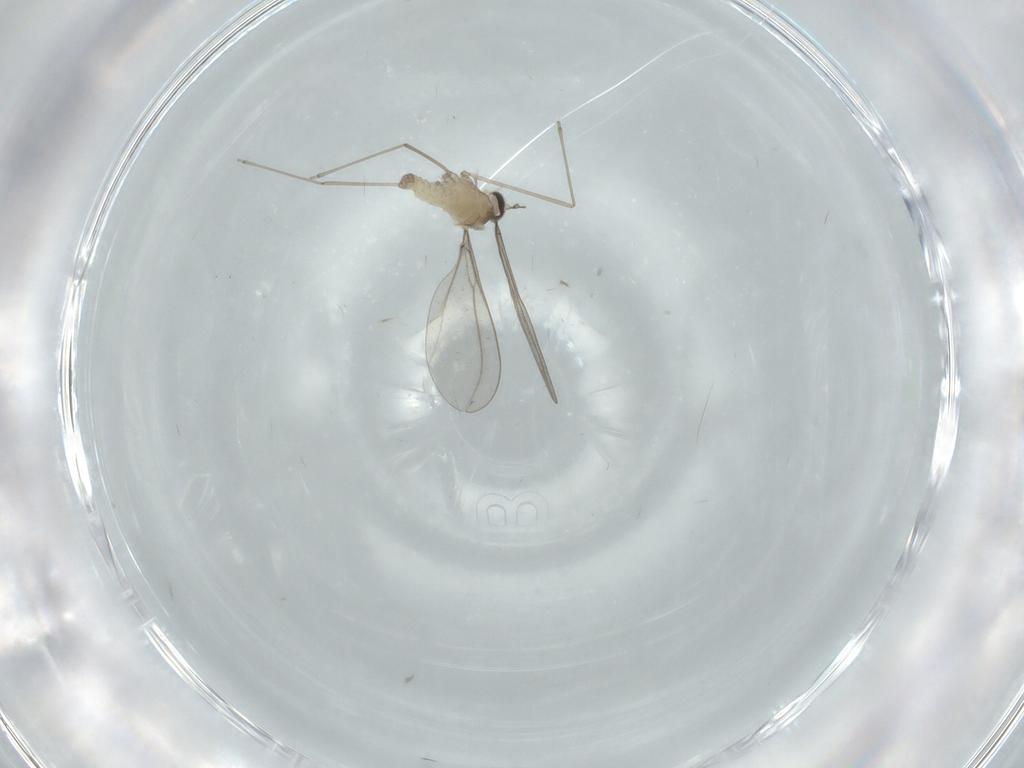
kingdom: Animalia
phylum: Arthropoda
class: Insecta
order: Diptera
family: Cecidomyiidae
